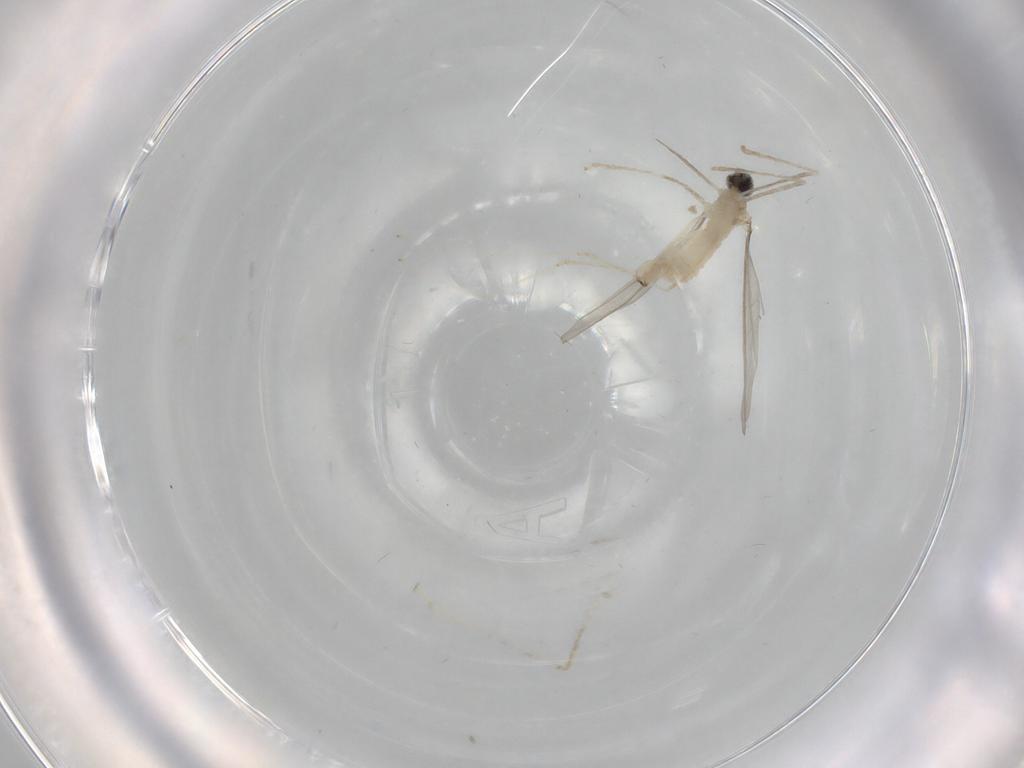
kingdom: Animalia
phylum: Arthropoda
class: Insecta
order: Diptera
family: Cecidomyiidae
